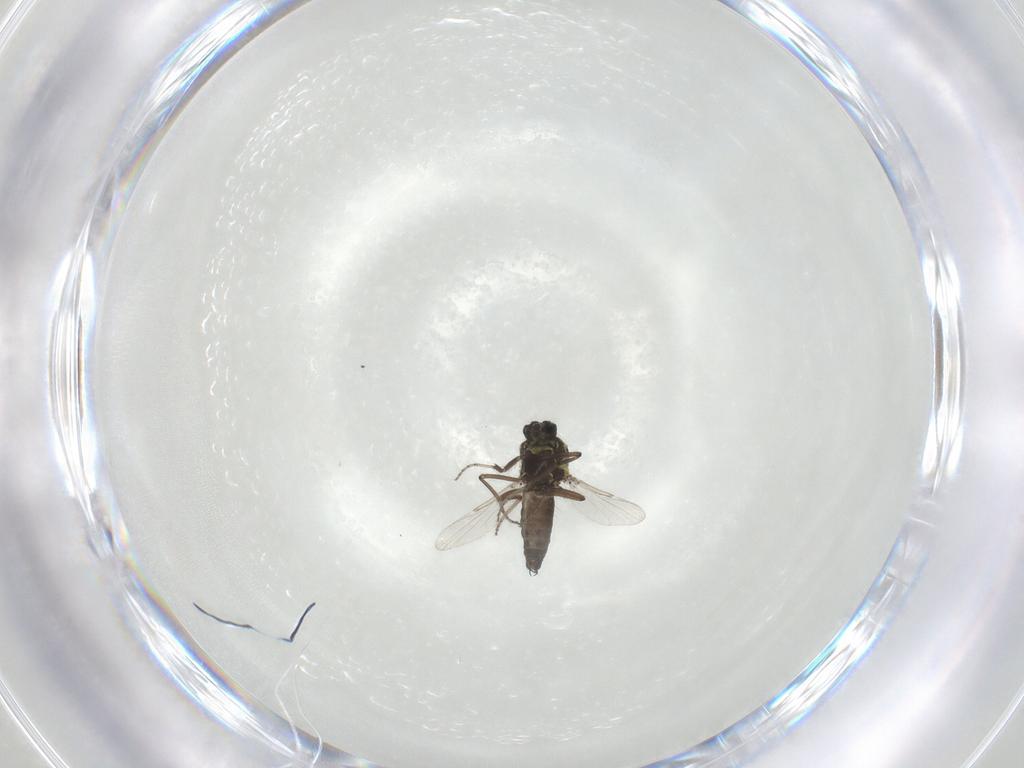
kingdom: Animalia
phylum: Arthropoda
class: Insecta
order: Diptera
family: Ceratopogonidae
